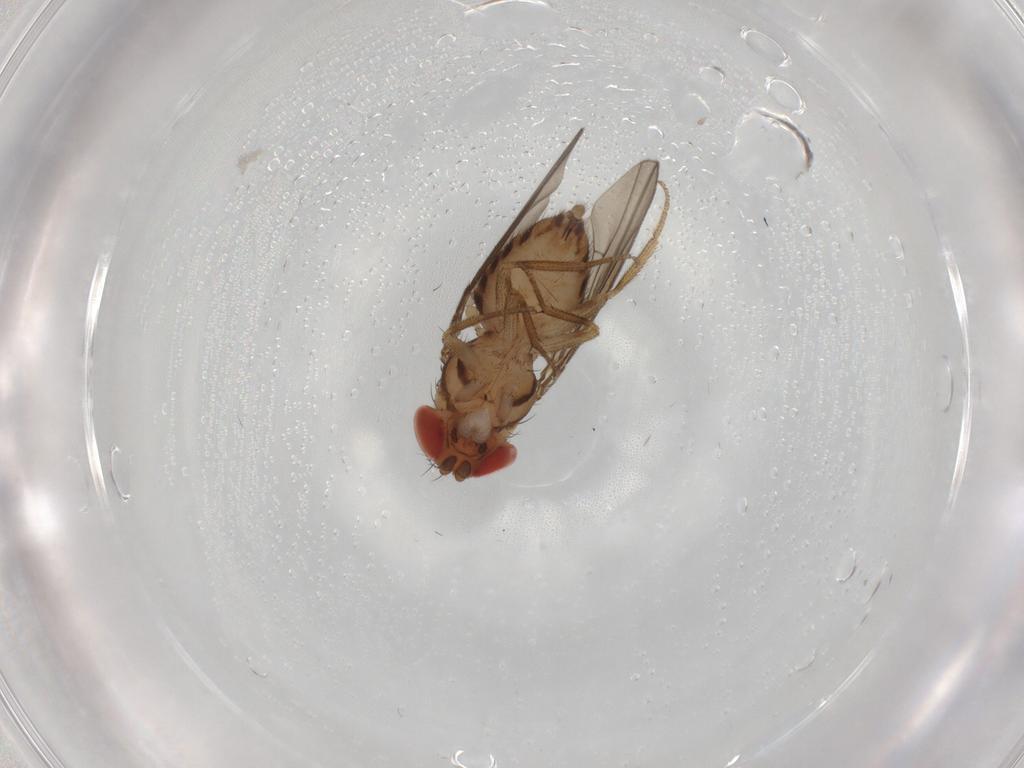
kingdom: Animalia
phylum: Arthropoda
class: Insecta
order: Diptera
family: Drosophilidae
